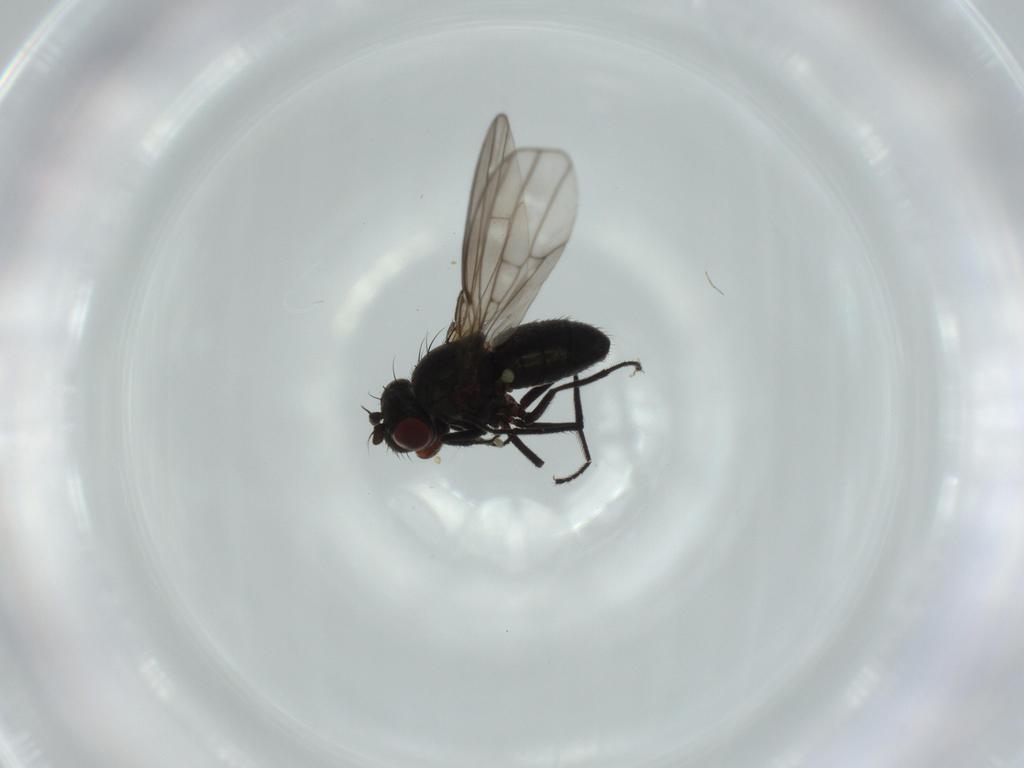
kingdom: Animalia
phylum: Arthropoda
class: Insecta
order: Diptera
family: Ephydridae
